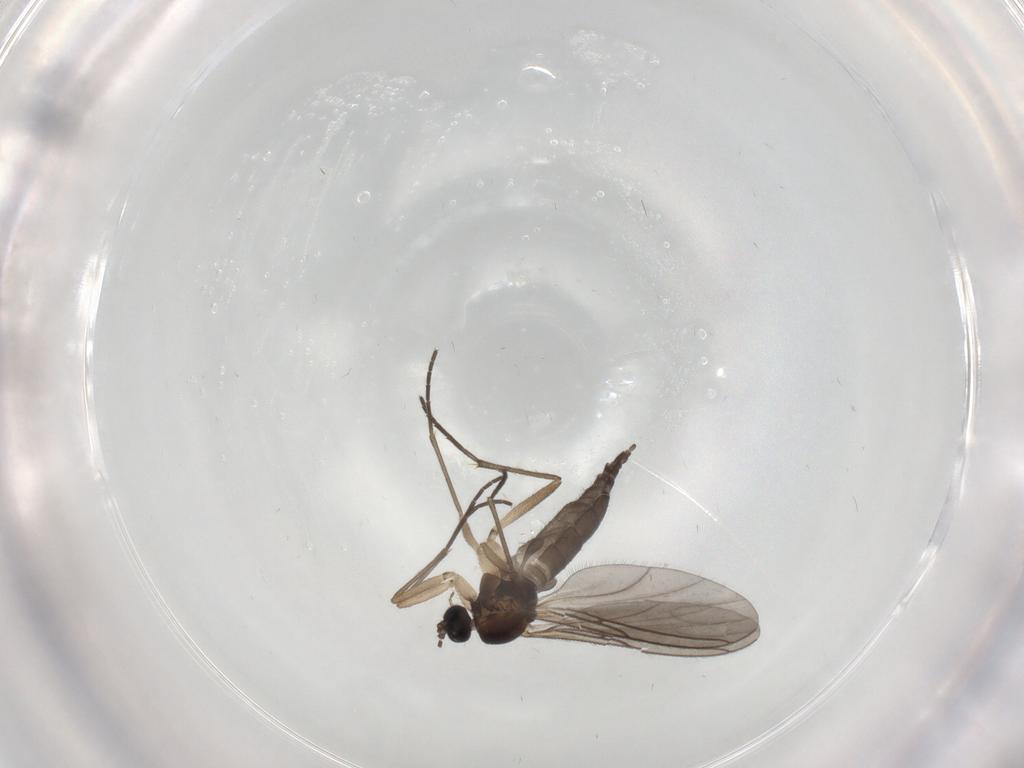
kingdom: Animalia
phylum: Arthropoda
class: Insecta
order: Diptera
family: Sciaridae
